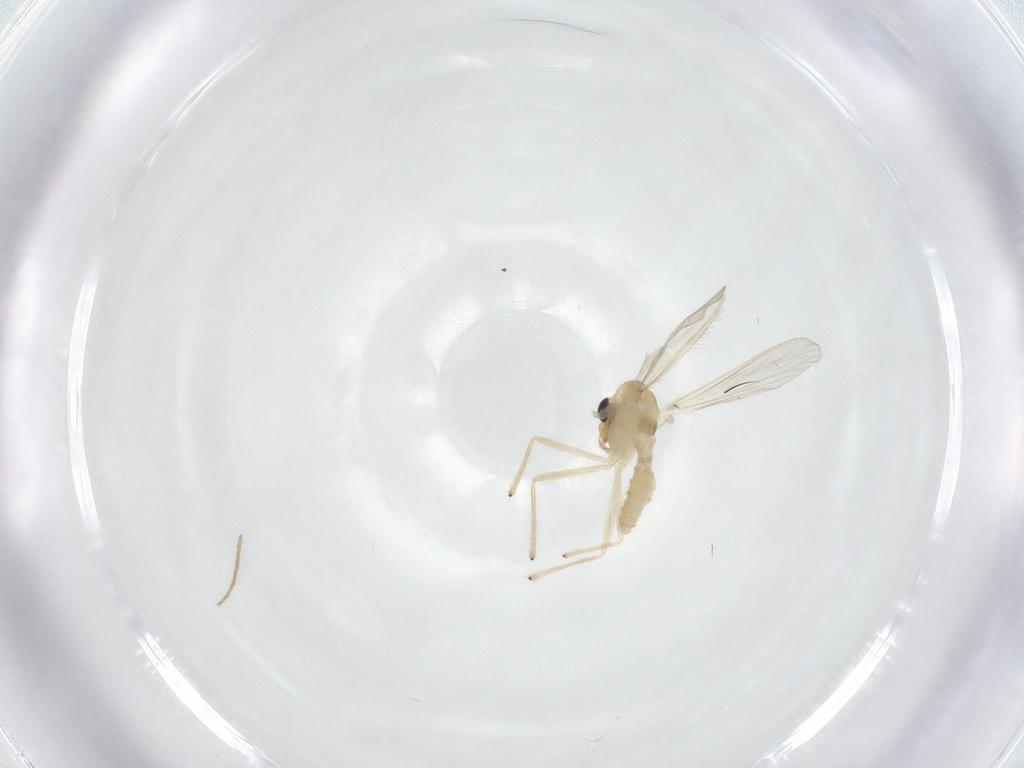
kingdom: Animalia
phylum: Arthropoda
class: Insecta
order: Diptera
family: Chironomidae
